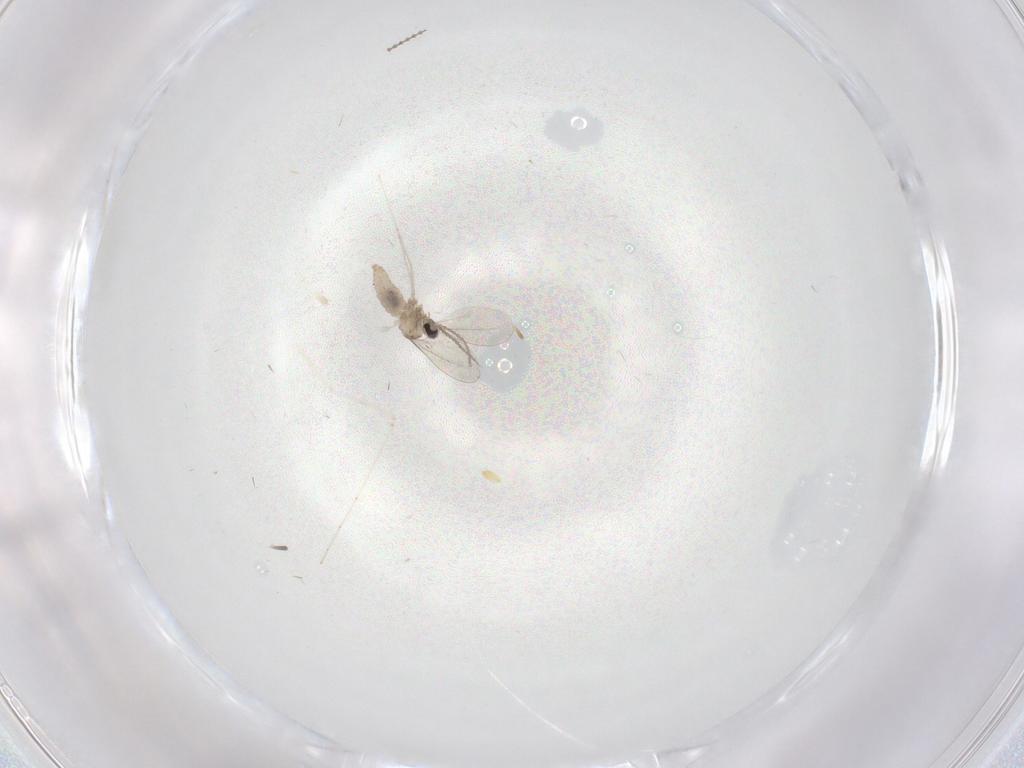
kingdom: Animalia
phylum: Arthropoda
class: Insecta
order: Diptera
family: Cecidomyiidae
